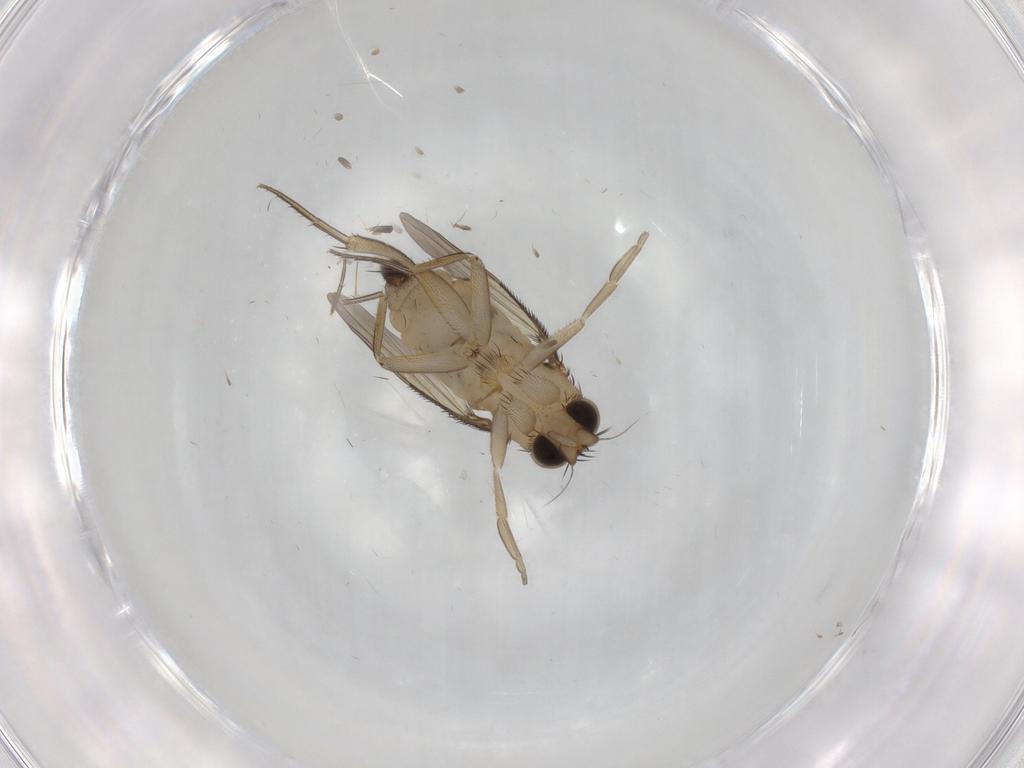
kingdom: Animalia
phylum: Arthropoda
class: Insecta
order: Diptera
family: Phoridae
